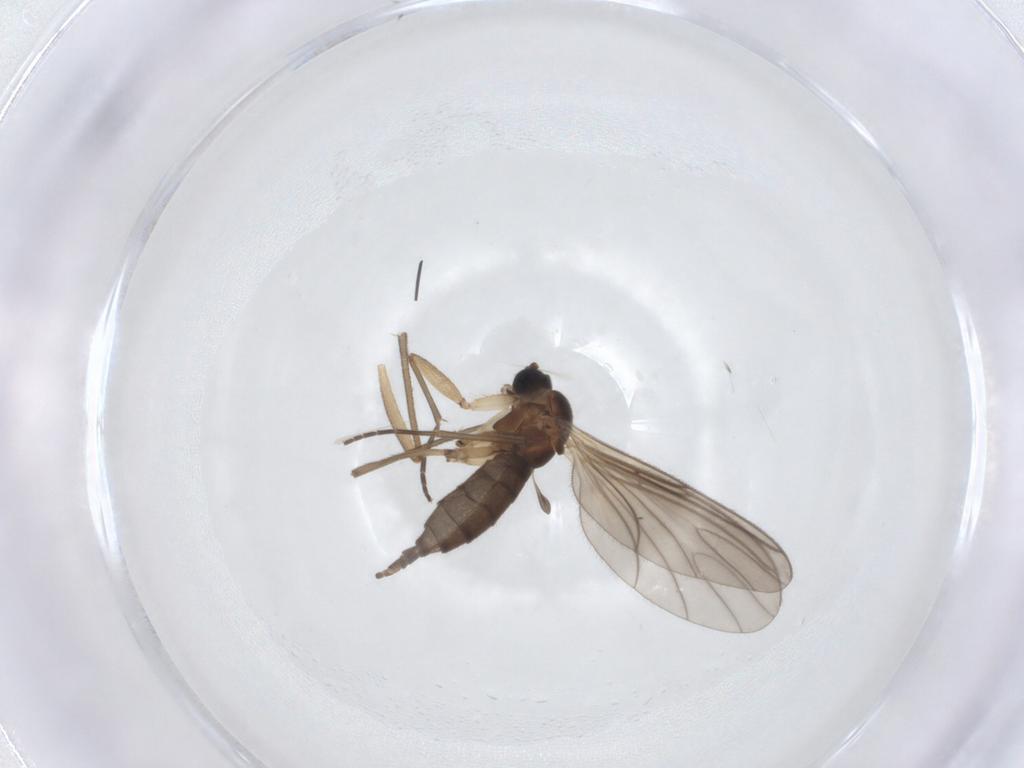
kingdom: Animalia
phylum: Arthropoda
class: Insecta
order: Diptera
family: Sciaridae
